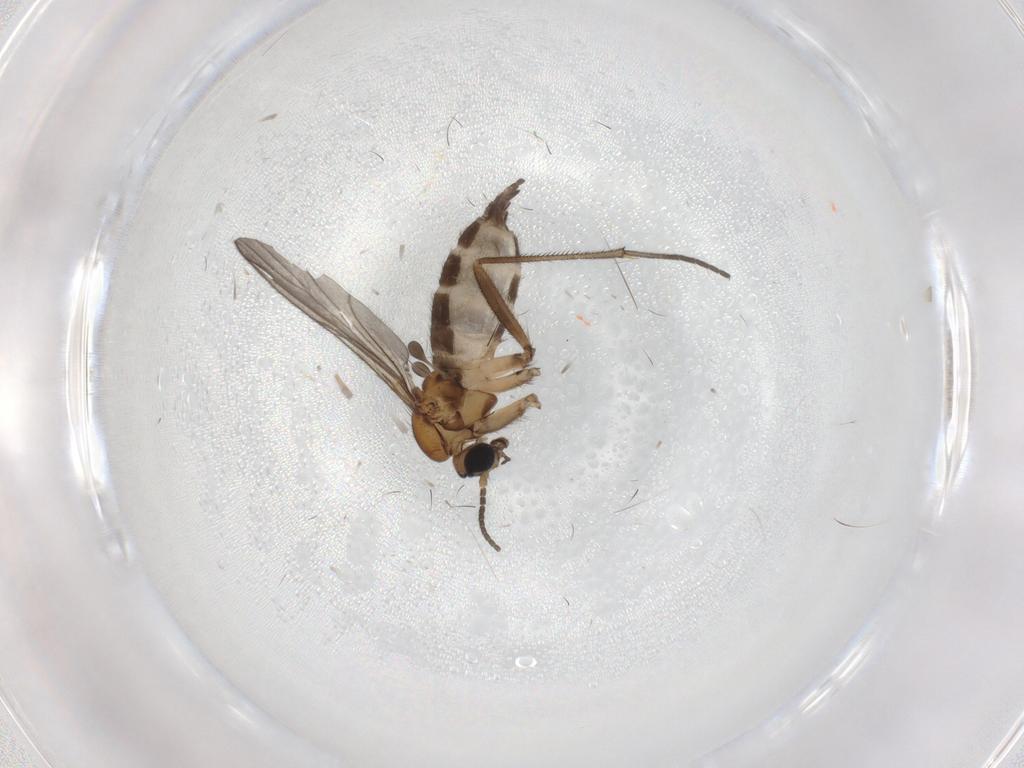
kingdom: Animalia
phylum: Arthropoda
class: Insecta
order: Diptera
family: Sciaridae
